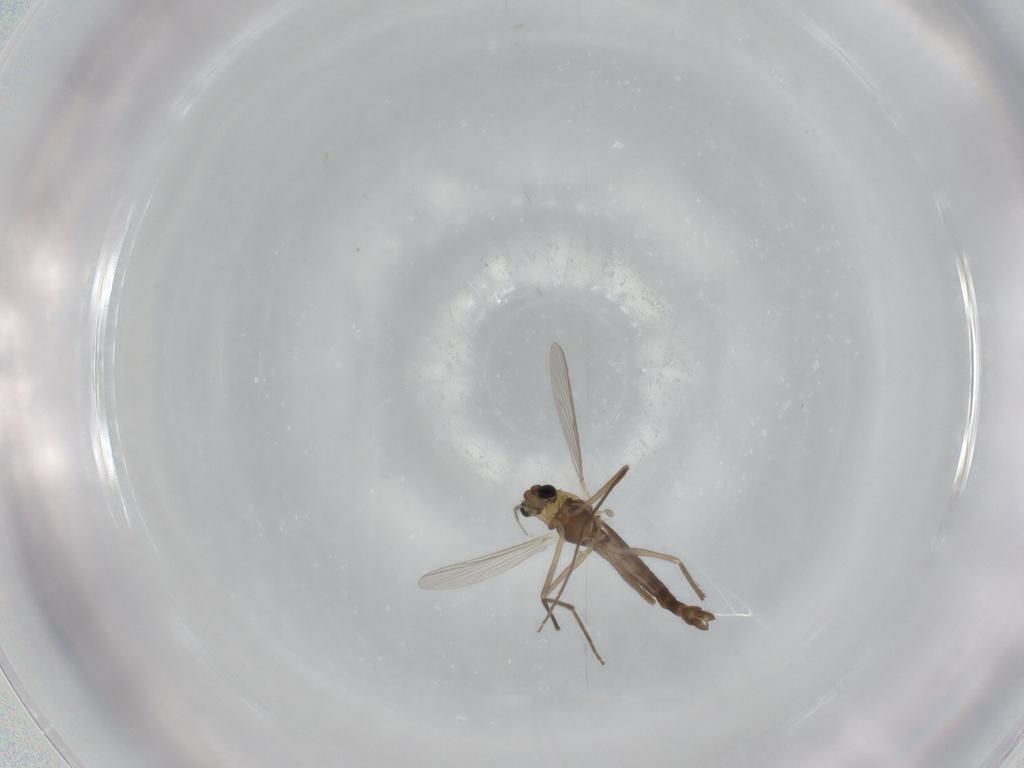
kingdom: Animalia
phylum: Arthropoda
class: Insecta
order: Diptera
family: Chironomidae
